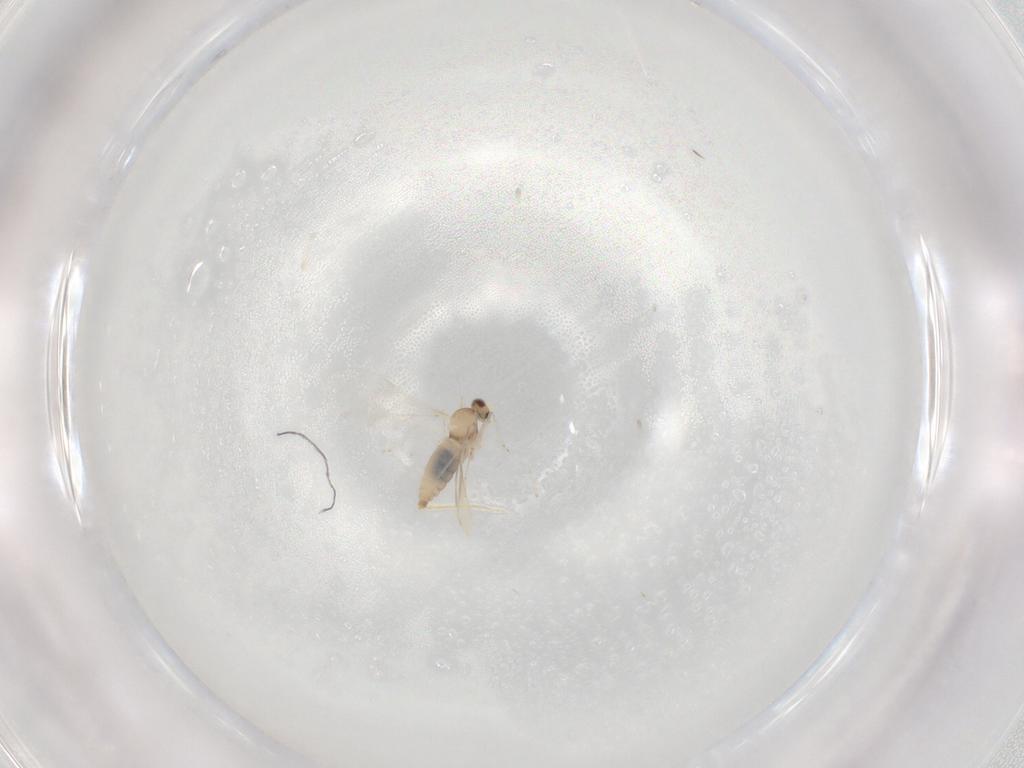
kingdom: Animalia
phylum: Arthropoda
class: Insecta
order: Diptera
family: Cecidomyiidae
